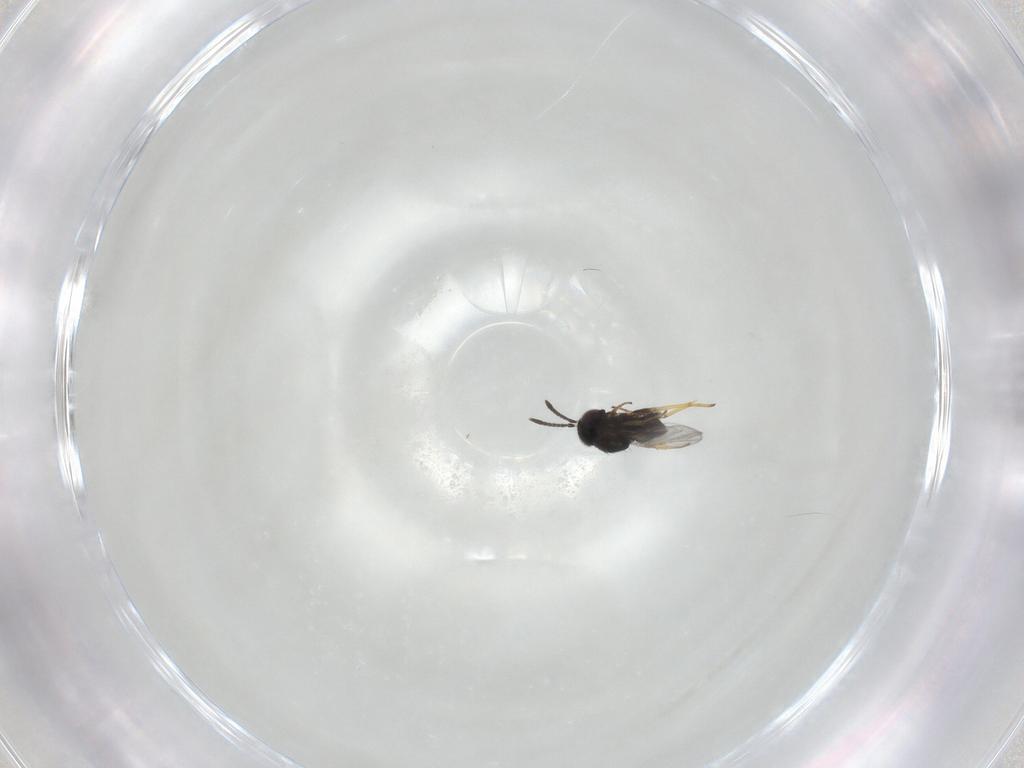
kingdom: Animalia
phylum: Arthropoda
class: Insecta
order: Hymenoptera
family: Encyrtidae
